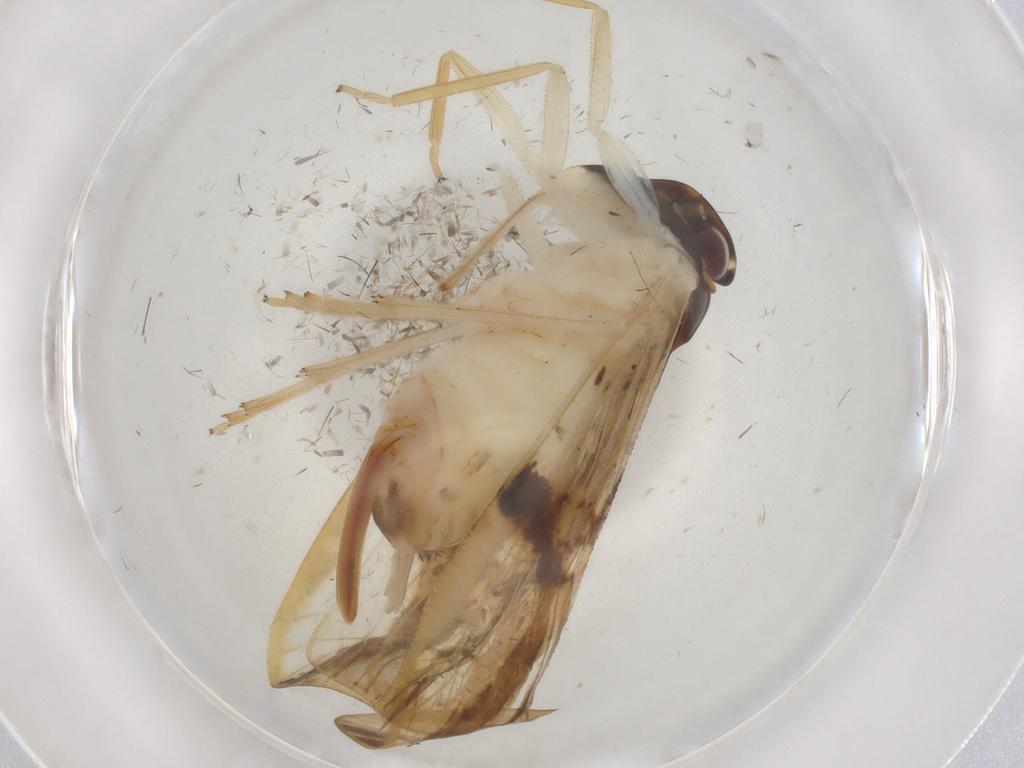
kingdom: Animalia
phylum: Arthropoda
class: Insecta
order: Hemiptera
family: Cixiidae
